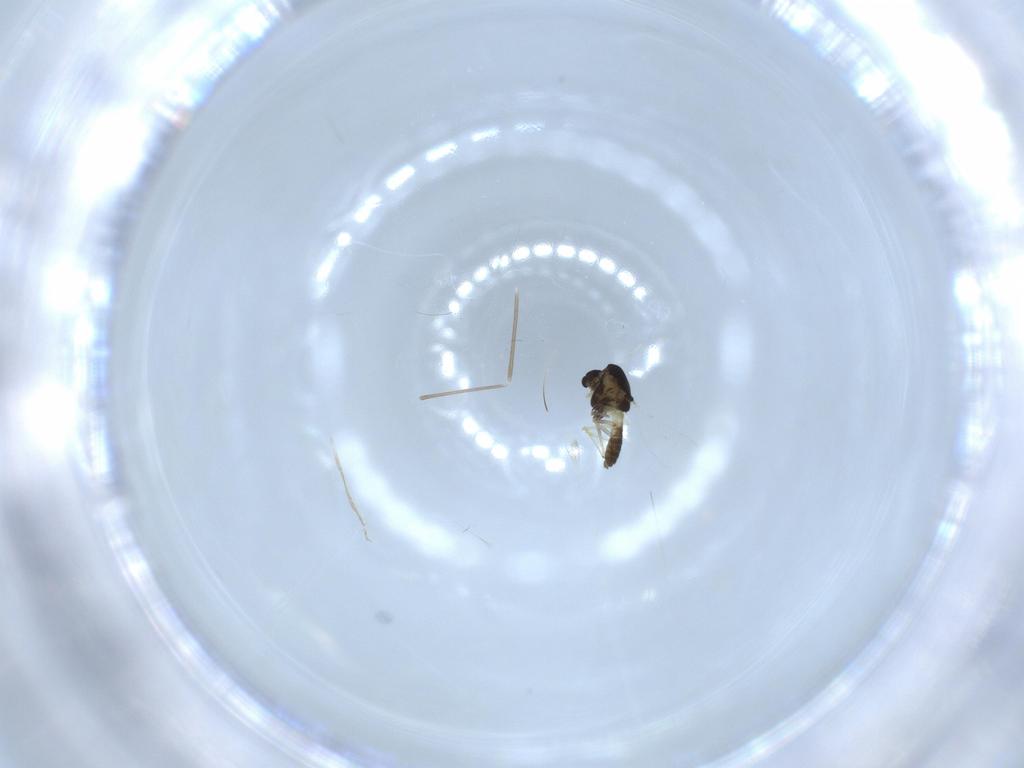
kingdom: Animalia
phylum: Arthropoda
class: Insecta
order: Diptera
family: Chironomidae
